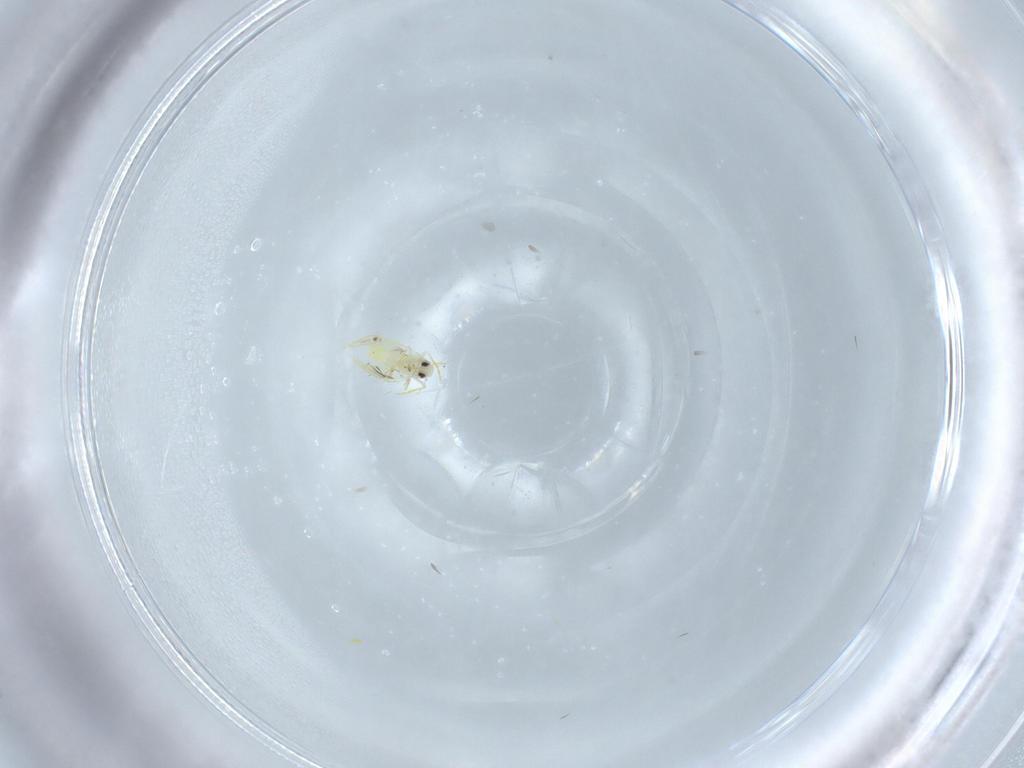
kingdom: Animalia
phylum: Arthropoda
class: Insecta
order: Hemiptera
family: Aleyrodidae
